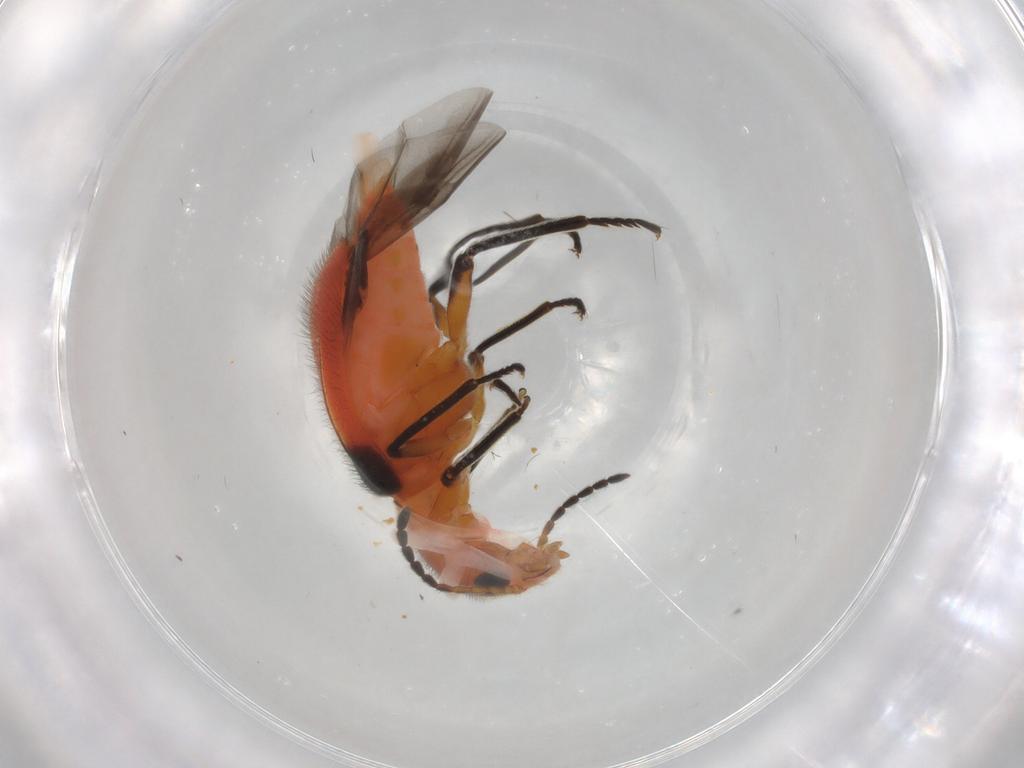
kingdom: Animalia
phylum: Arthropoda
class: Insecta
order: Coleoptera
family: Melyridae
